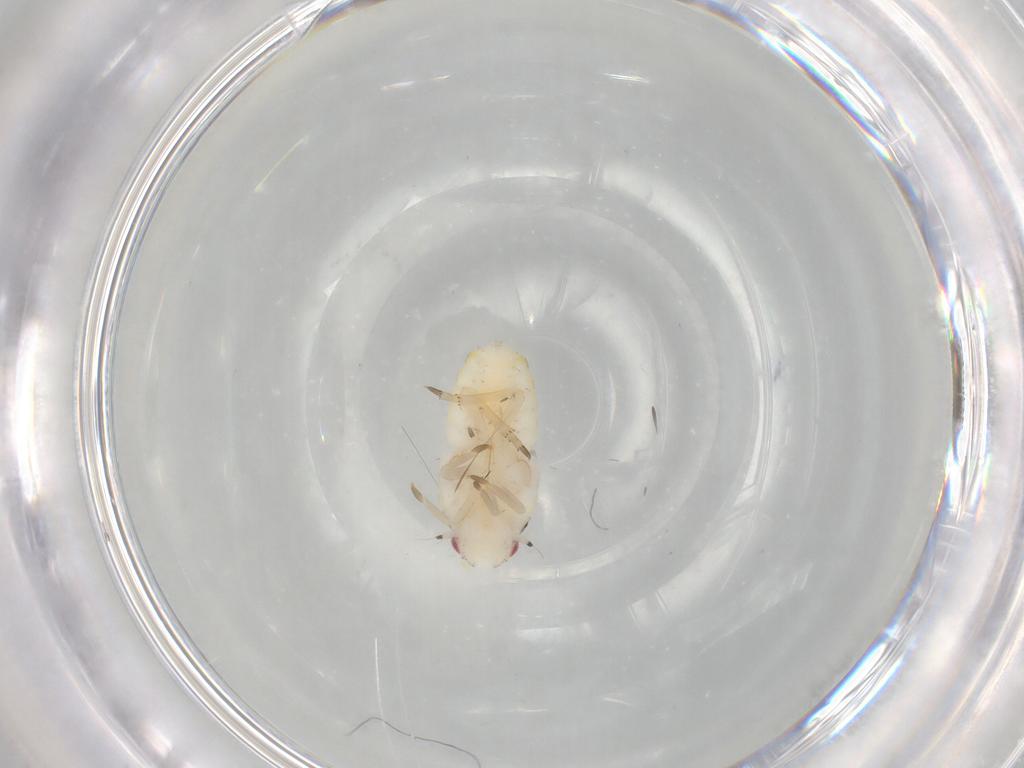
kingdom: Animalia
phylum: Arthropoda
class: Insecta
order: Hemiptera
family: Flatidae
